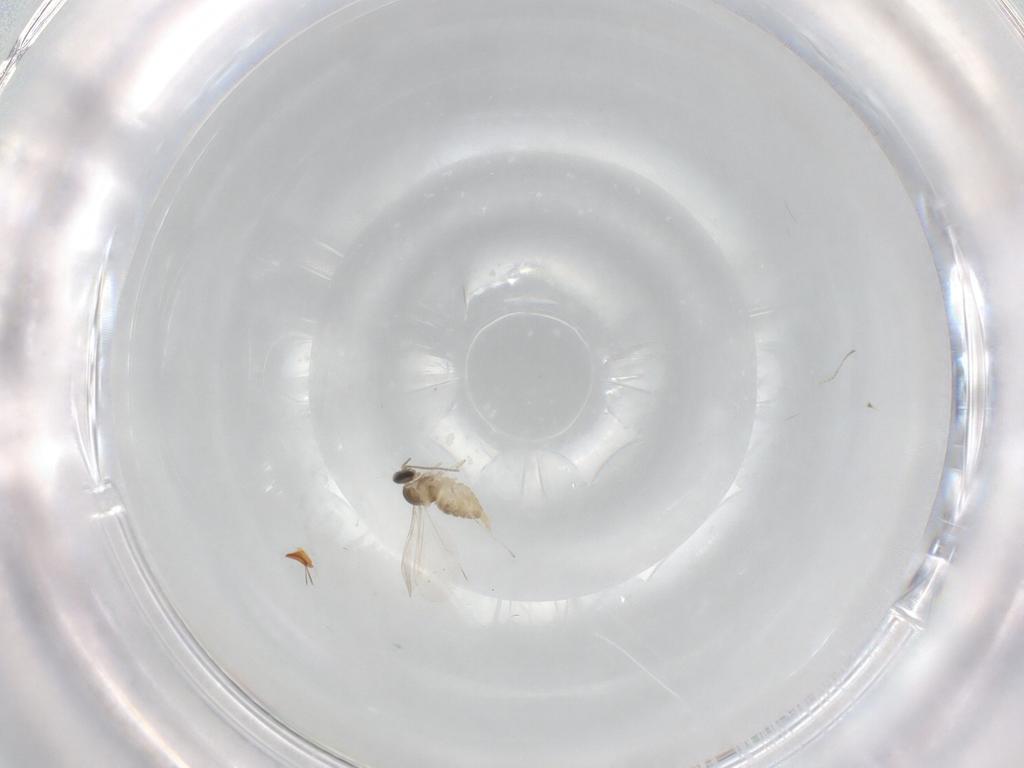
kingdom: Animalia
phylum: Arthropoda
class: Insecta
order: Diptera
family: Cecidomyiidae
